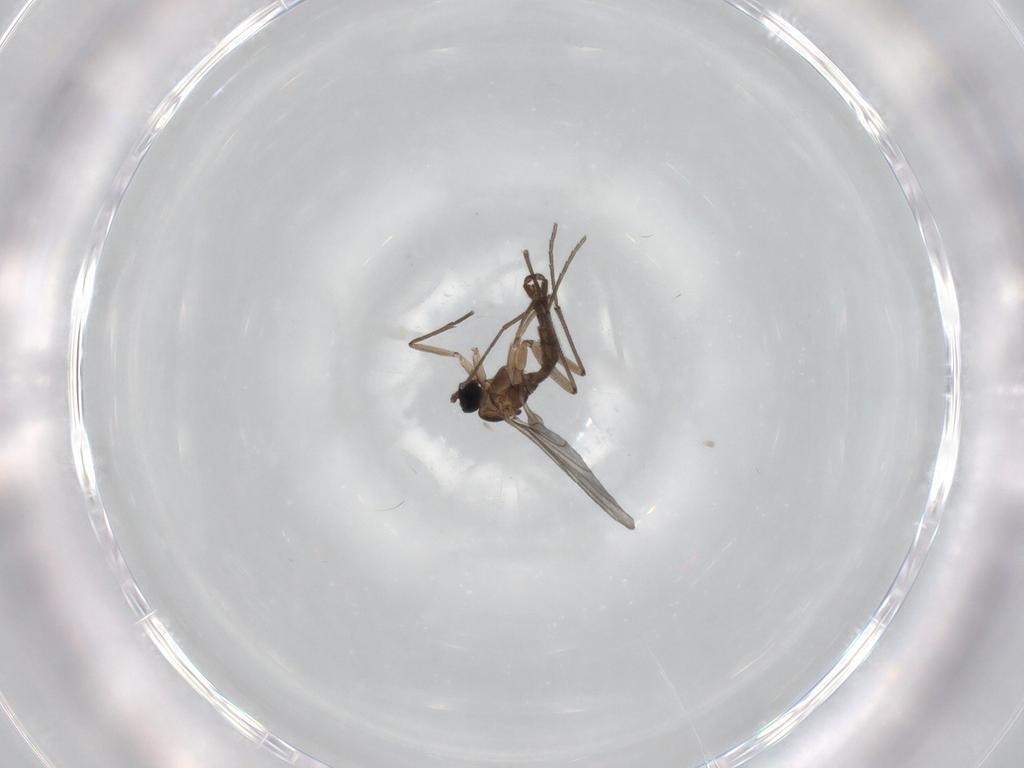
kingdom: Animalia
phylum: Arthropoda
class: Insecta
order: Diptera
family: Sciaridae
